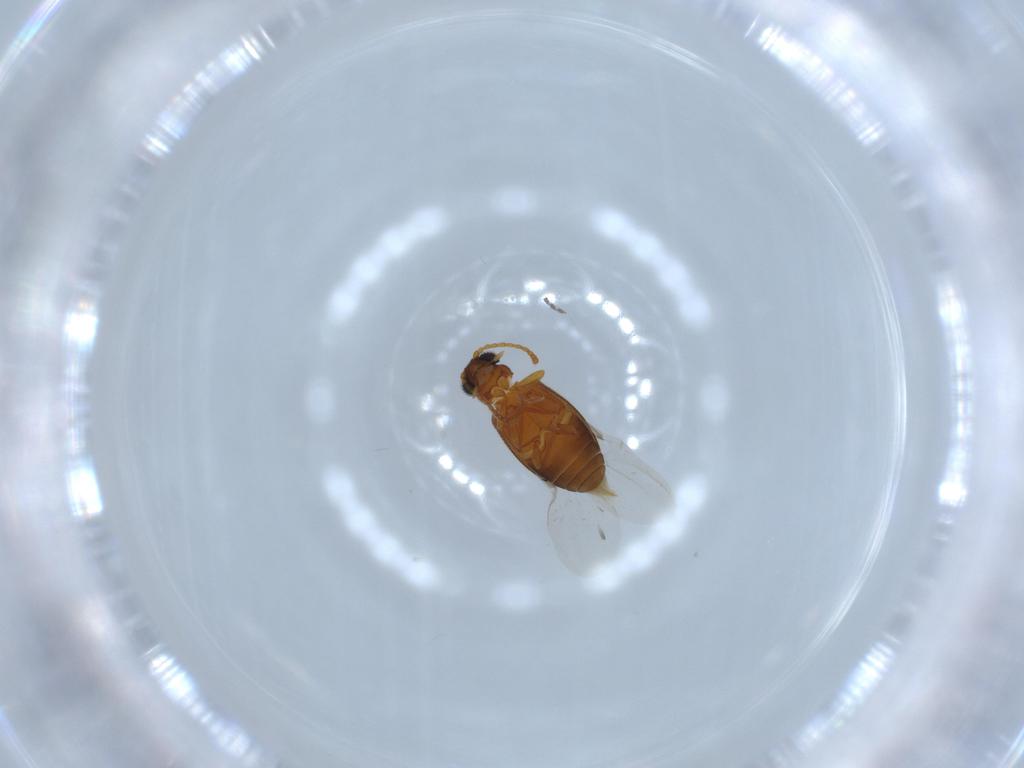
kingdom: Animalia
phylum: Arthropoda
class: Insecta
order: Coleoptera
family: Aderidae
